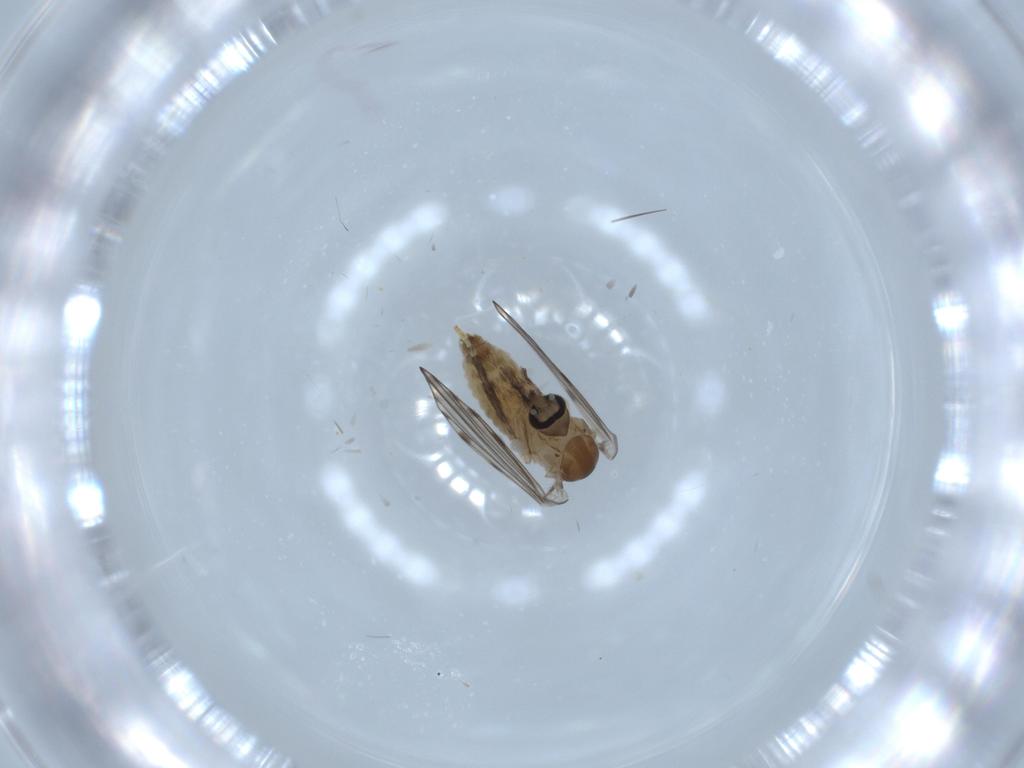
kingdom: Animalia
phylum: Arthropoda
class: Insecta
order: Diptera
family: Psychodidae
